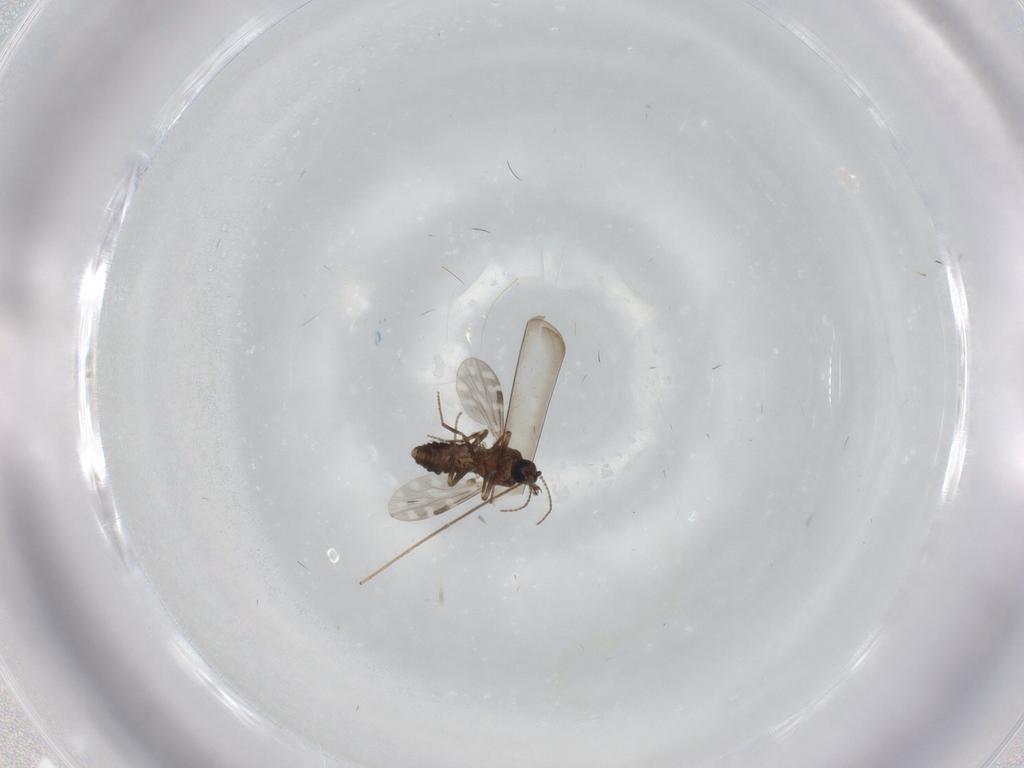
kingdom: Animalia
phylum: Arthropoda
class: Insecta
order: Diptera
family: Chironomidae
